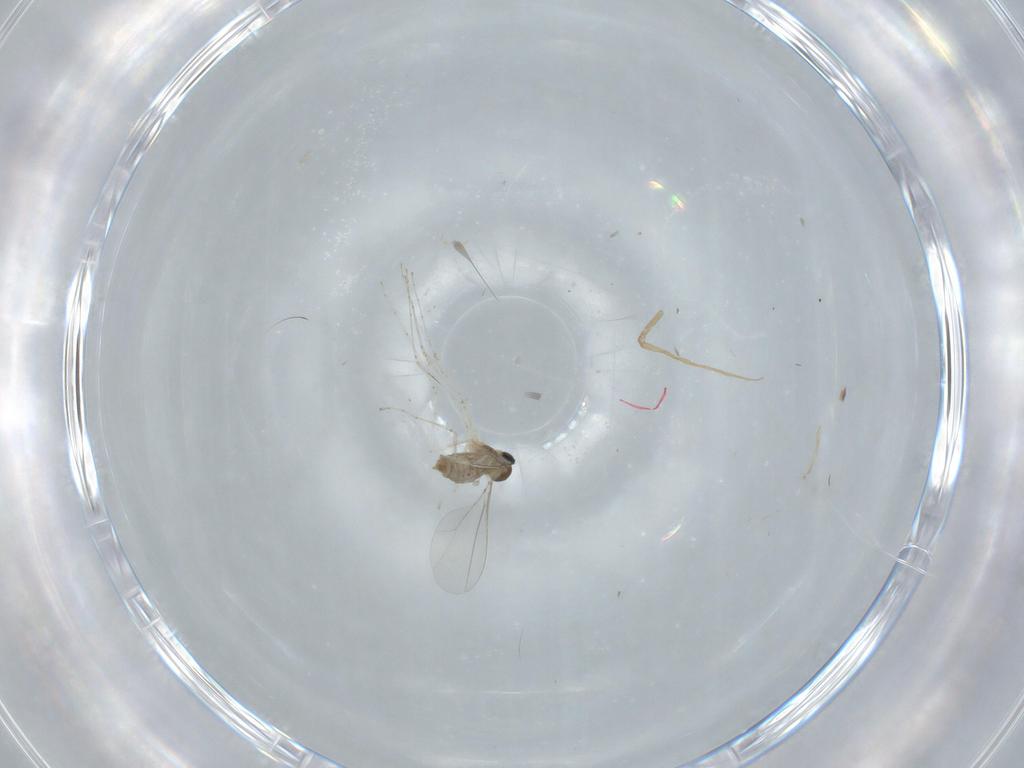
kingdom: Animalia
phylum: Arthropoda
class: Insecta
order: Diptera
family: Cecidomyiidae
